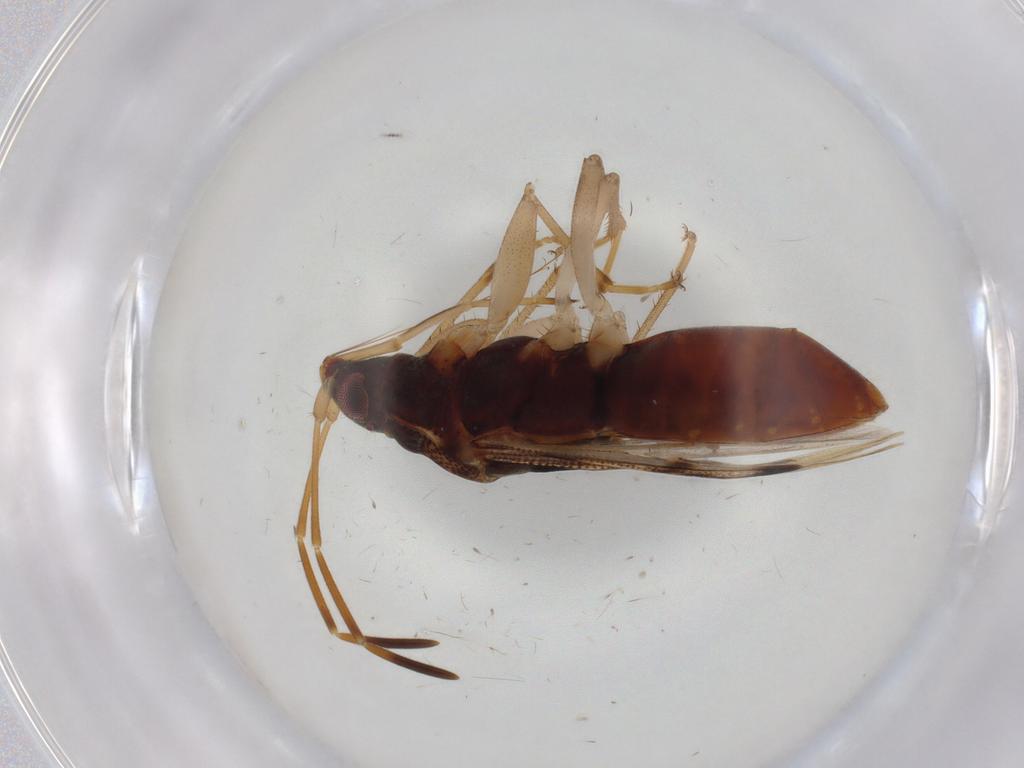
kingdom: Animalia
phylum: Arthropoda
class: Insecta
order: Hemiptera
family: Rhyparochromidae
